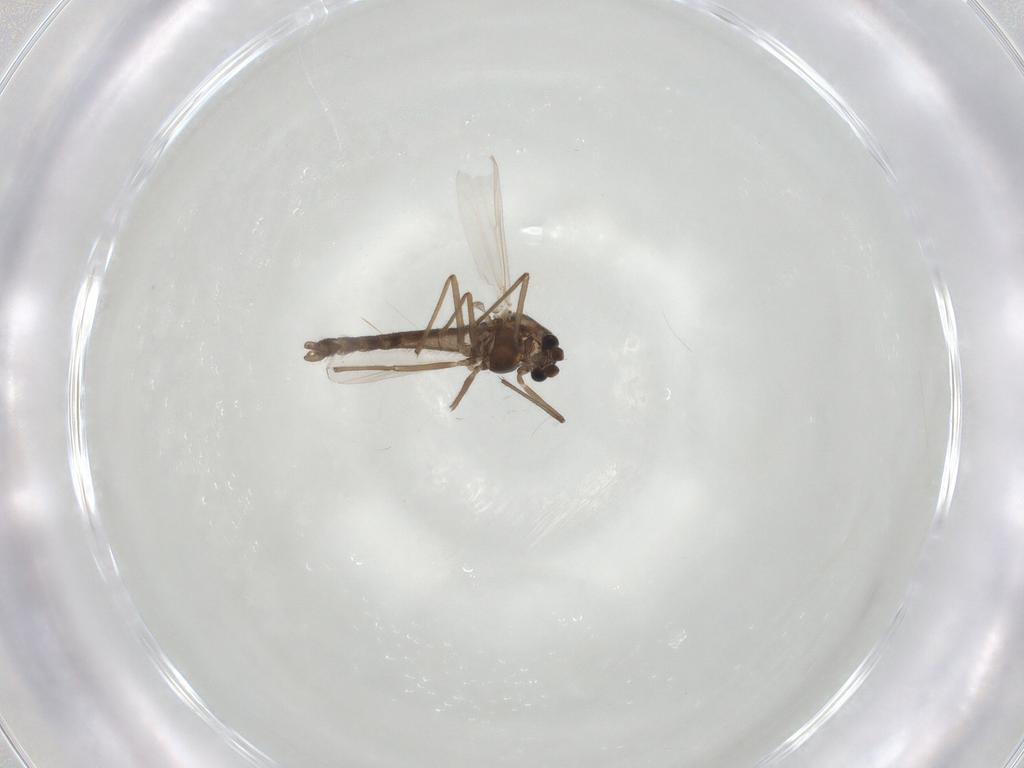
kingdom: Animalia
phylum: Arthropoda
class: Insecta
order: Diptera
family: Chironomidae
